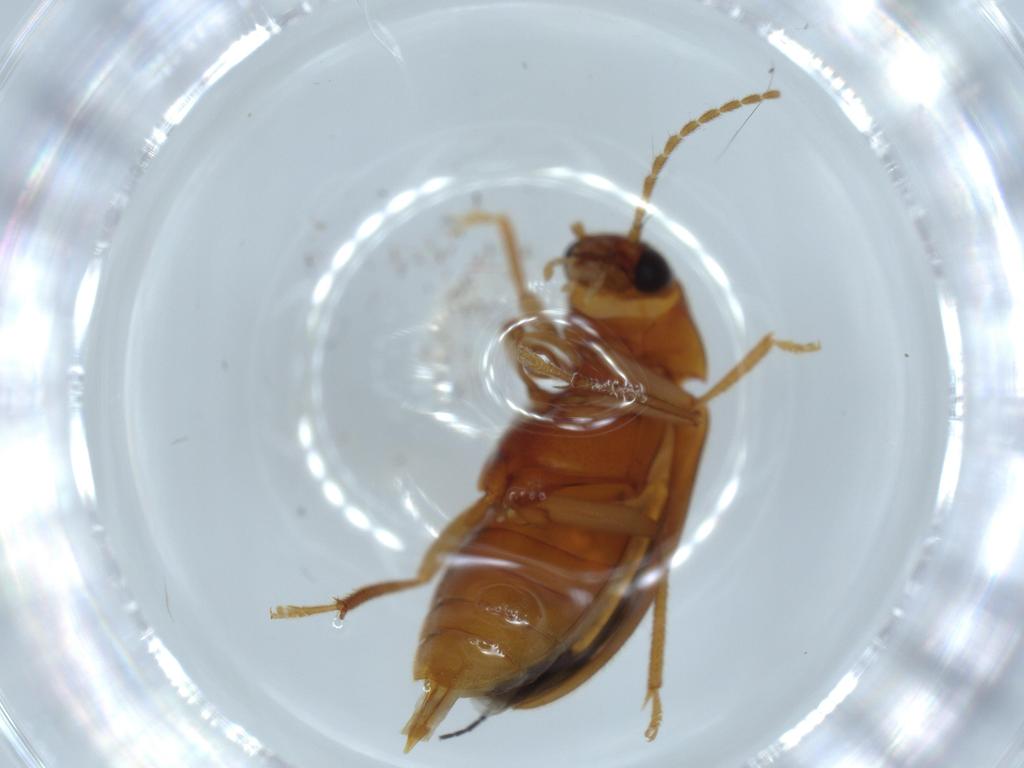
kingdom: Animalia
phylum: Arthropoda
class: Insecta
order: Coleoptera
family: Ptilodactylidae
